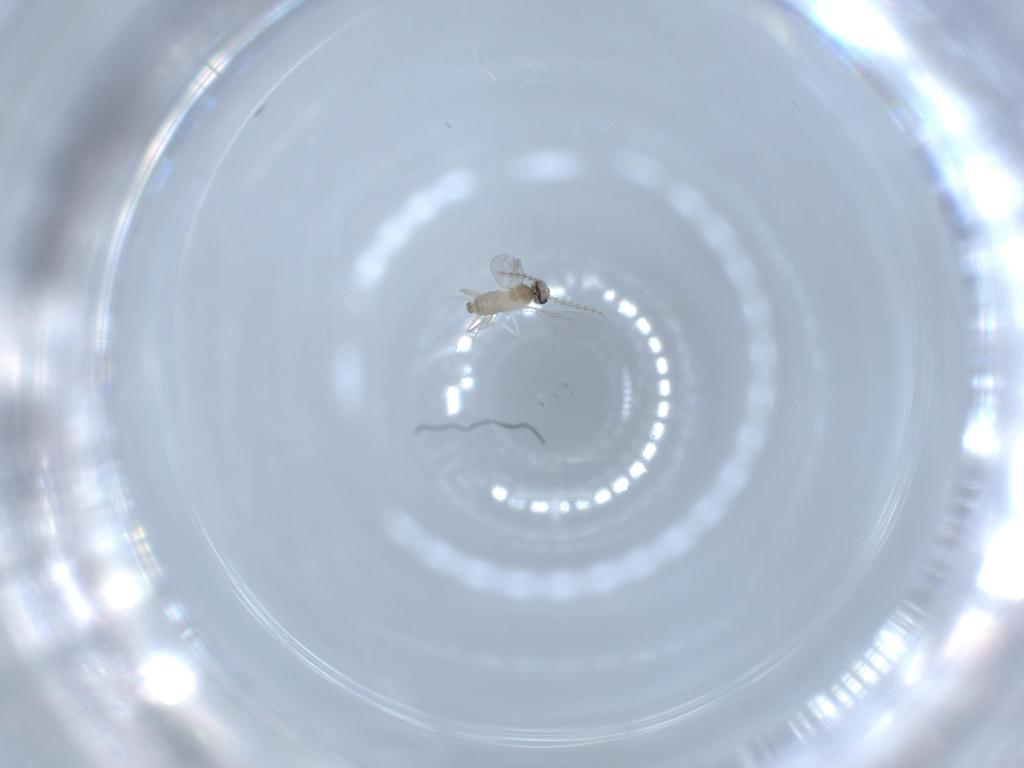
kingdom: Animalia
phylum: Arthropoda
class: Insecta
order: Diptera
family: Cecidomyiidae
